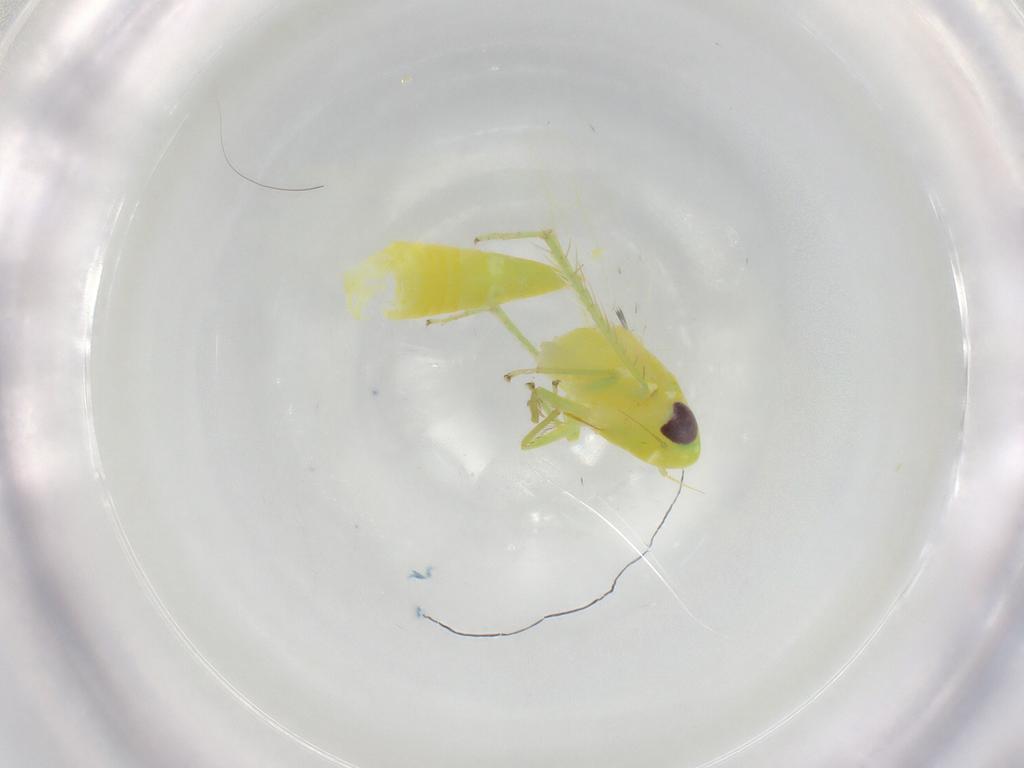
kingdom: Animalia
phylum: Arthropoda
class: Insecta
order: Hemiptera
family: Cicadellidae
